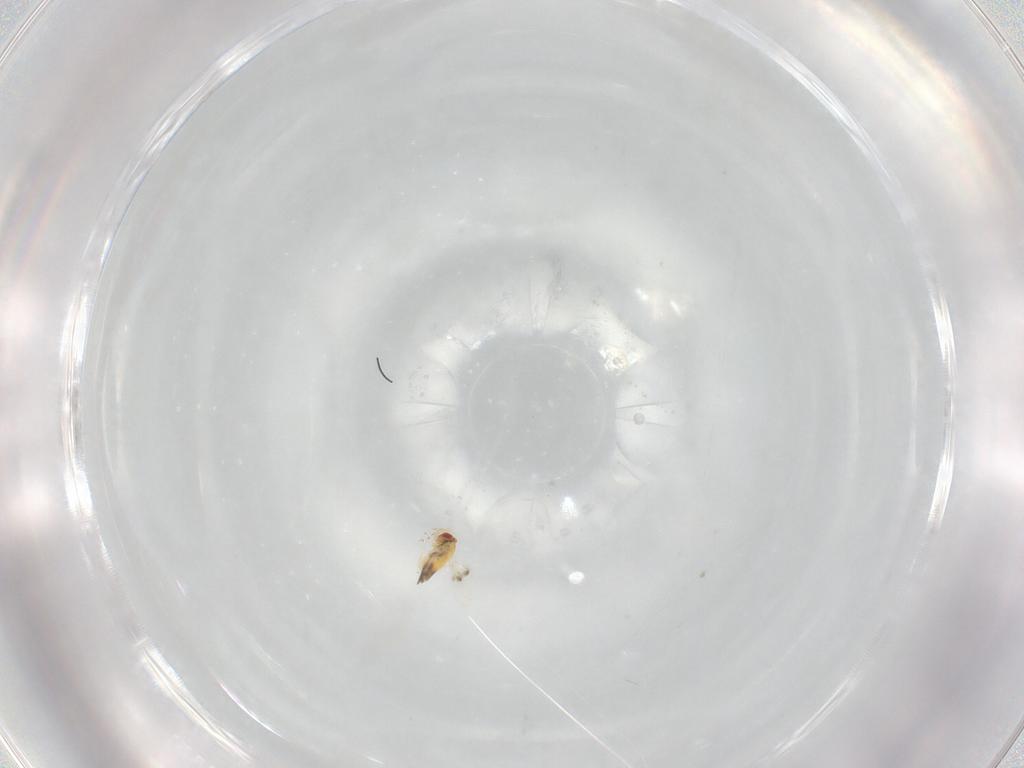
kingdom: Animalia
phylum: Arthropoda
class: Insecta
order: Hymenoptera
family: Trichogrammatidae
